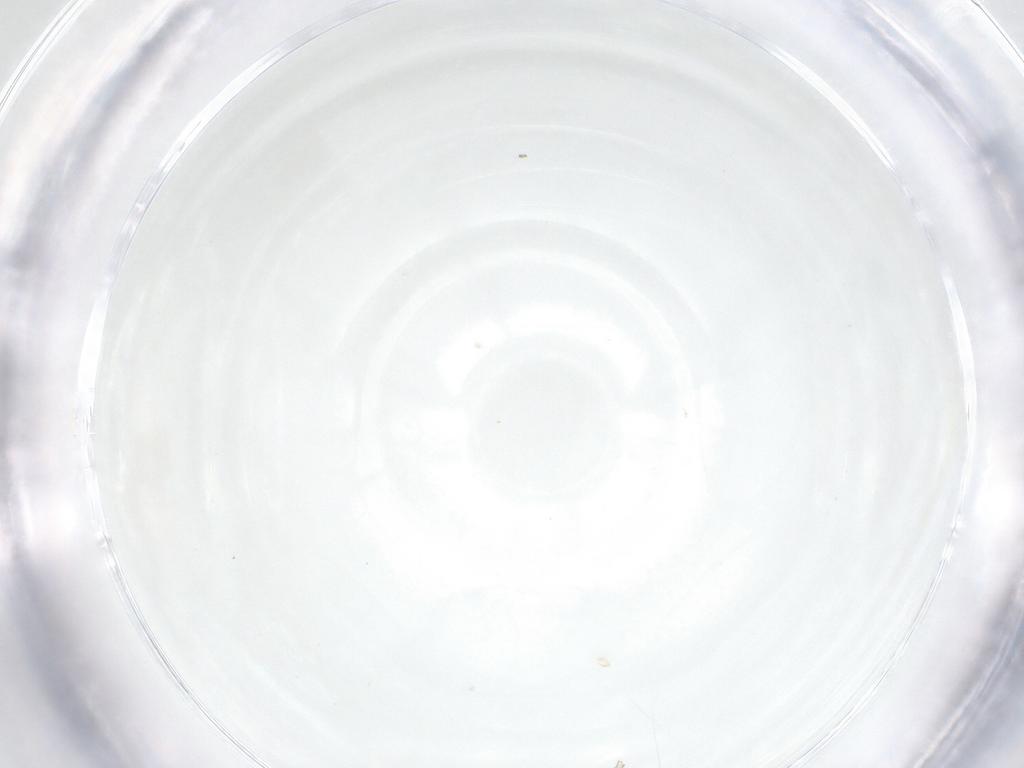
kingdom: Animalia
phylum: Arthropoda
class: Insecta
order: Diptera
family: Cecidomyiidae
